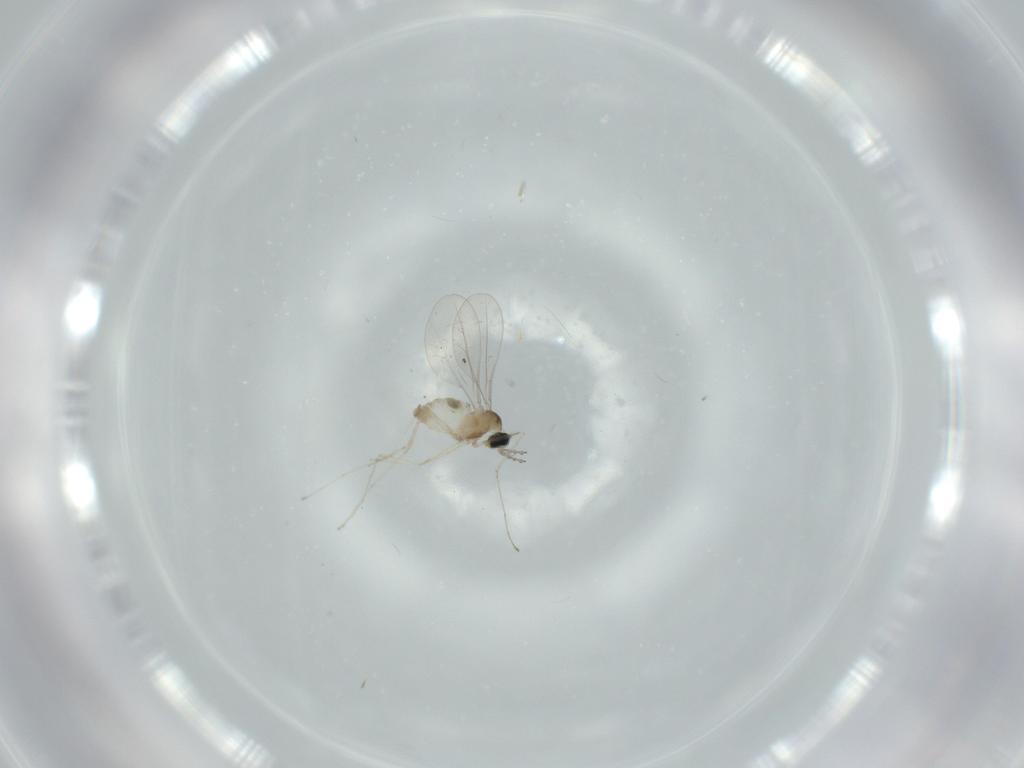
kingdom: Animalia
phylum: Arthropoda
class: Insecta
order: Diptera
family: Cecidomyiidae
